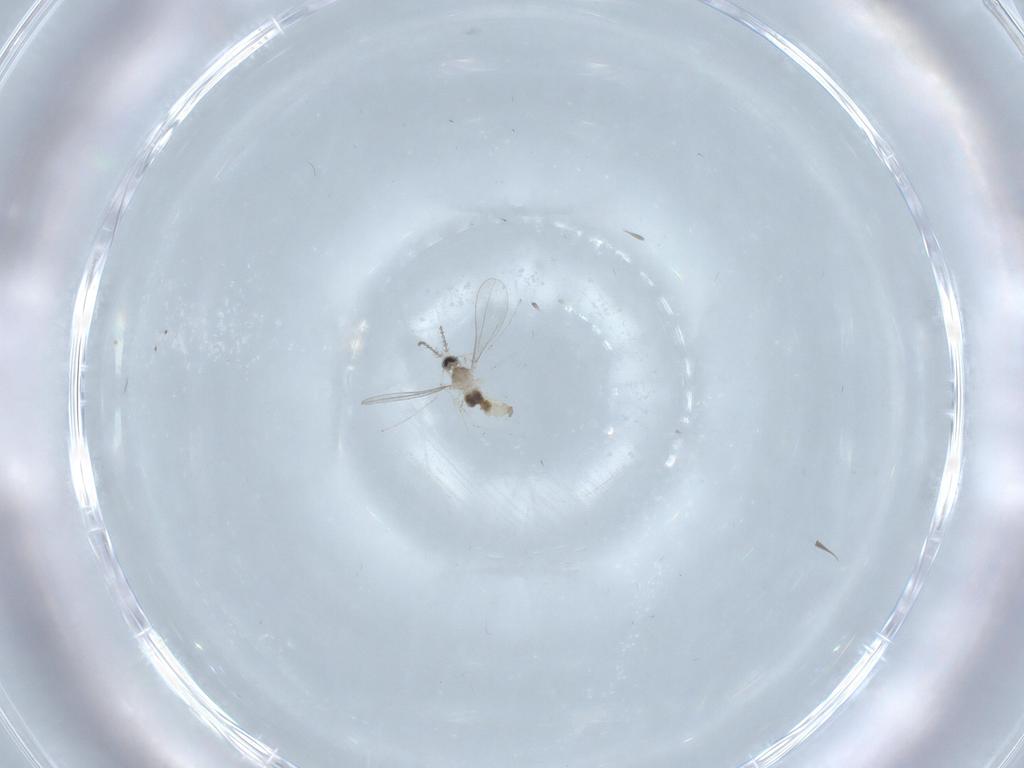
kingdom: Animalia
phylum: Arthropoda
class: Insecta
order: Diptera
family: Cecidomyiidae
